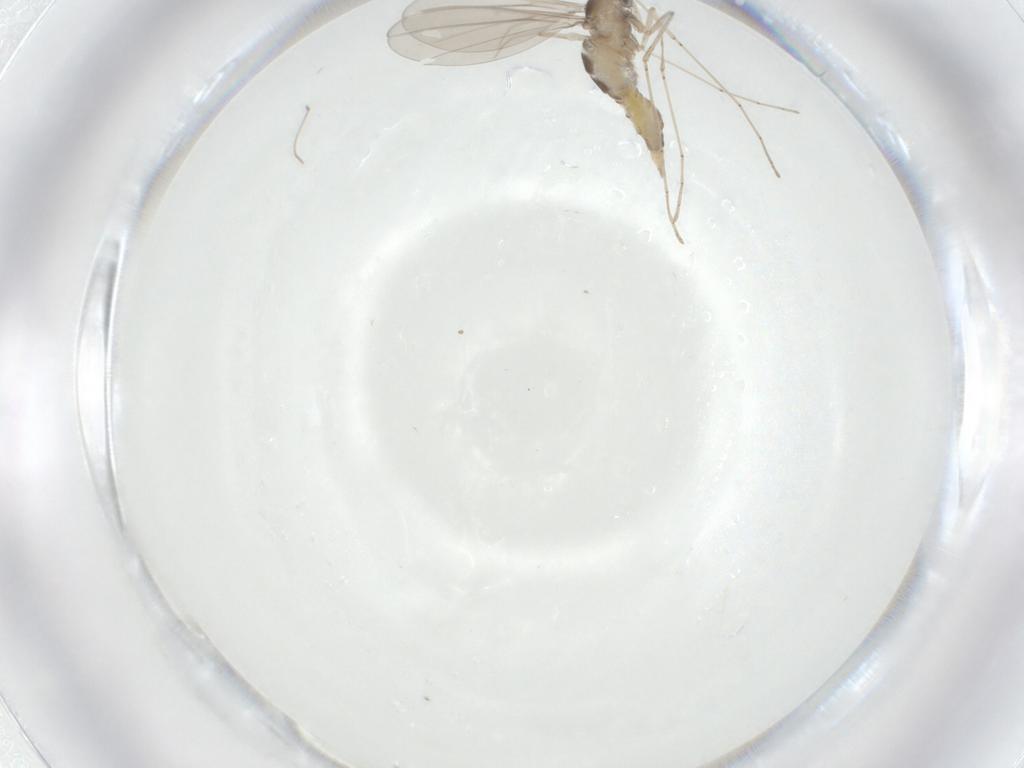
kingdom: Animalia
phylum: Arthropoda
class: Insecta
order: Diptera
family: Cecidomyiidae
